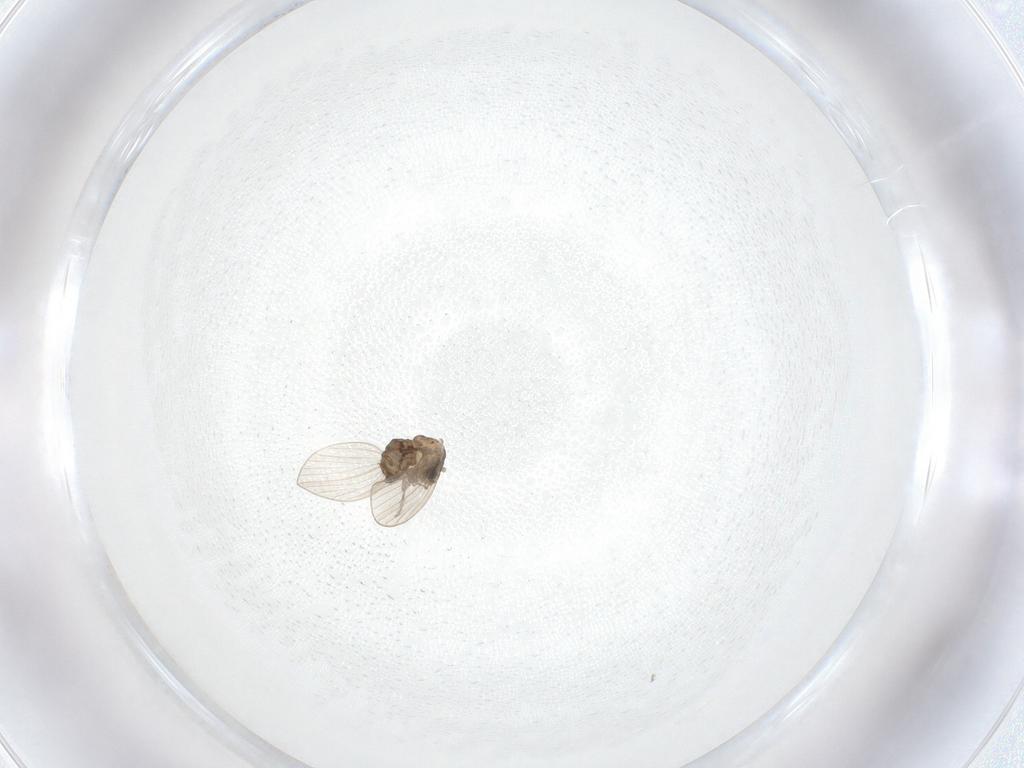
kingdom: Animalia
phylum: Arthropoda
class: Insecta
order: Diptera
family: Psychodidae
